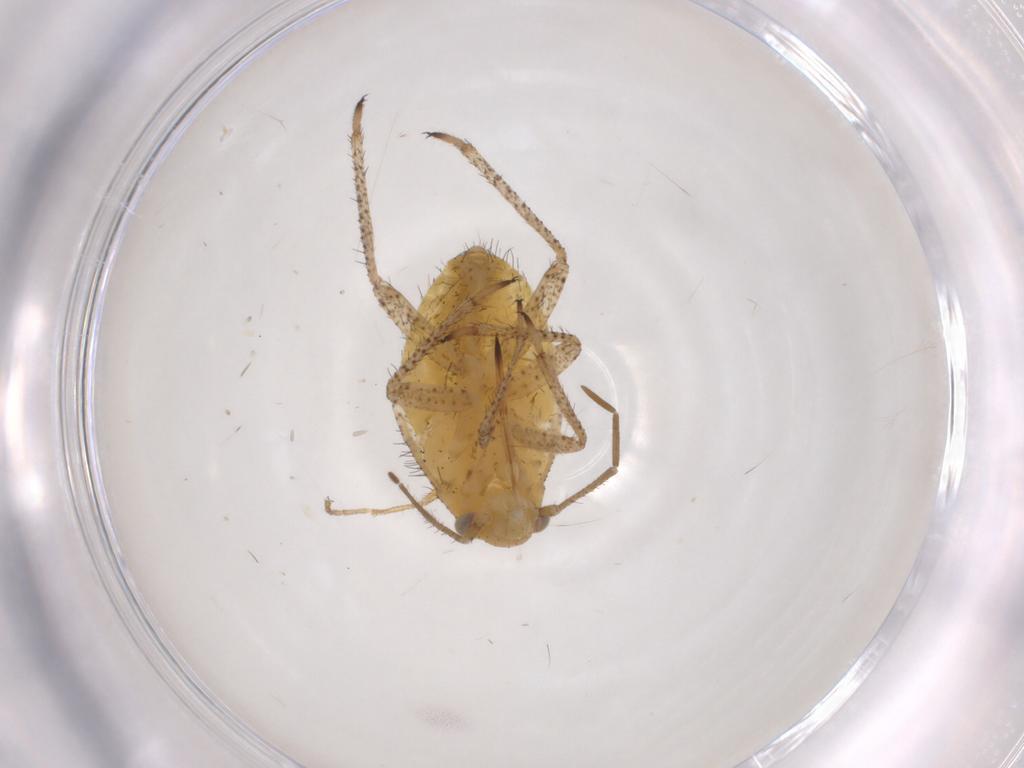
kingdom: Animalia
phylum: Arthropoda
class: Insecta
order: Hemiptera
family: Miridae
